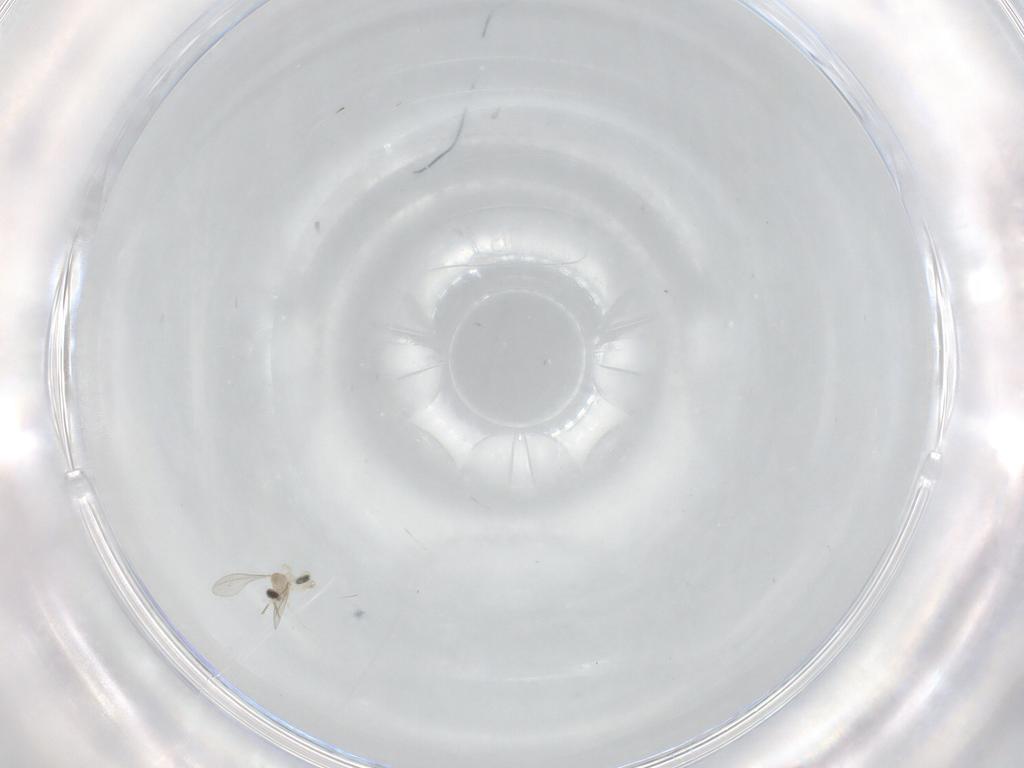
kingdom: Animalia
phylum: Arthropoda
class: Insecta
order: Diptera
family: Cecidomyiidae
